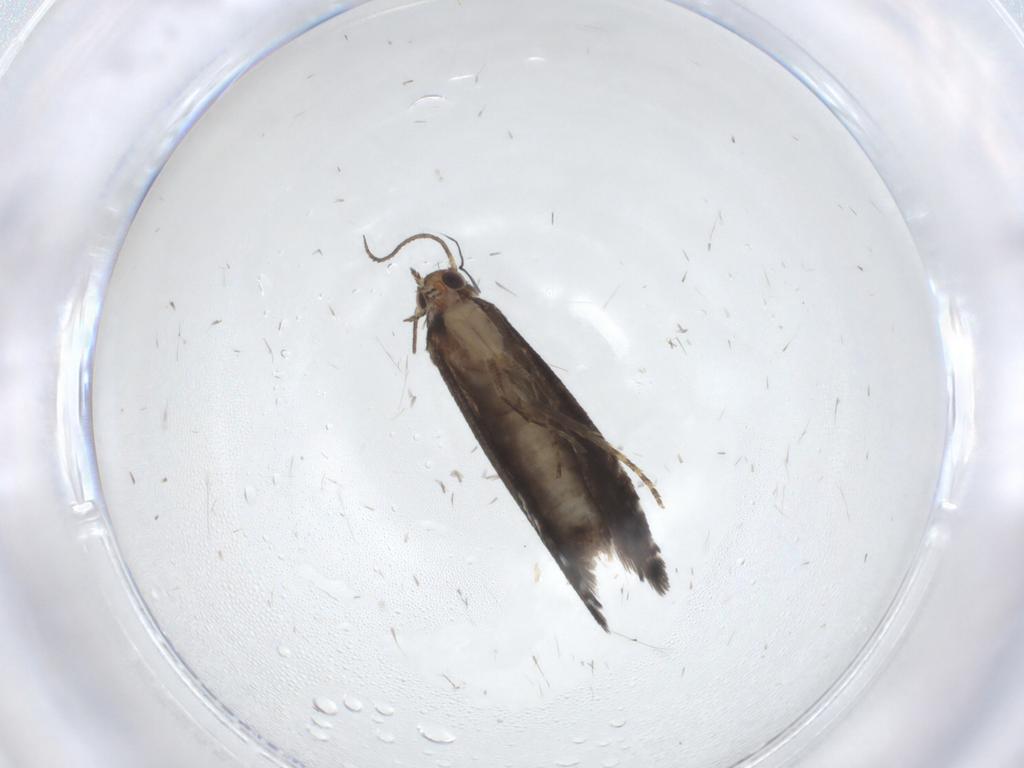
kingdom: Animalia
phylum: Arthropoda
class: Insecta
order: Lepidoptera
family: Glyphipterigidae
